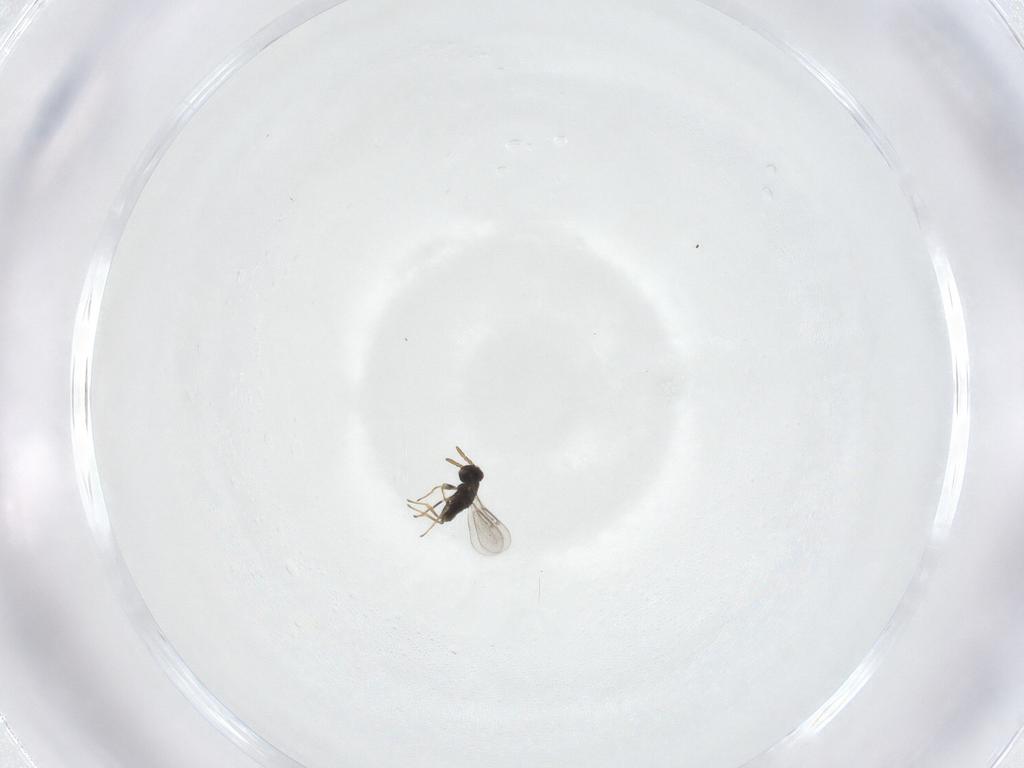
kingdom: Animalia
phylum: Arthropoda
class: Insecta
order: Hymenoptera
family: Aphelinidae
